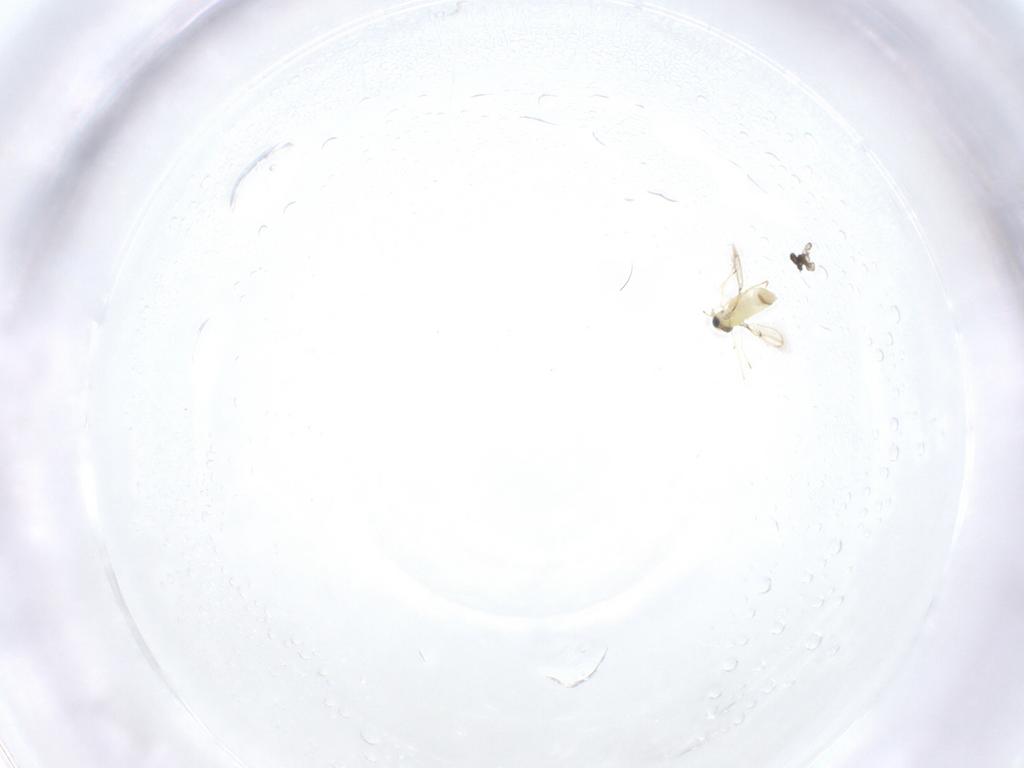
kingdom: Animalia
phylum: Arthropoda
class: Insecta
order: Hymenoptera
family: Trichogrammatidae
